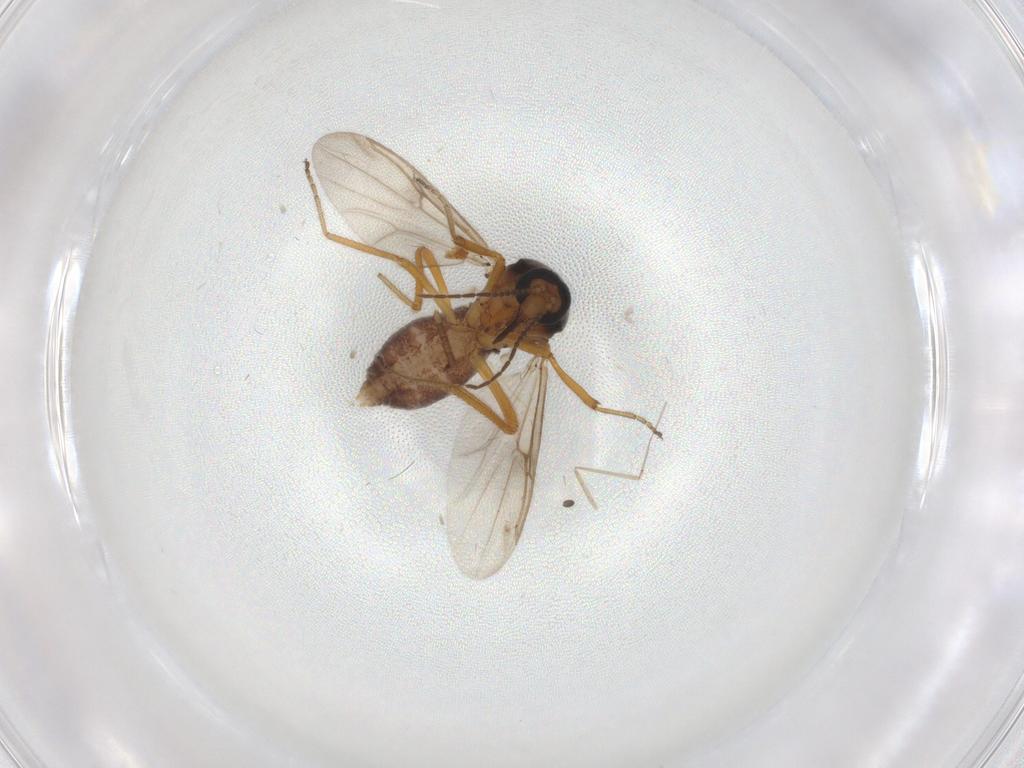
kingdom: Animalia
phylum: Arthropoda
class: Insecta
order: Diptera
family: Ceratopogonidae
